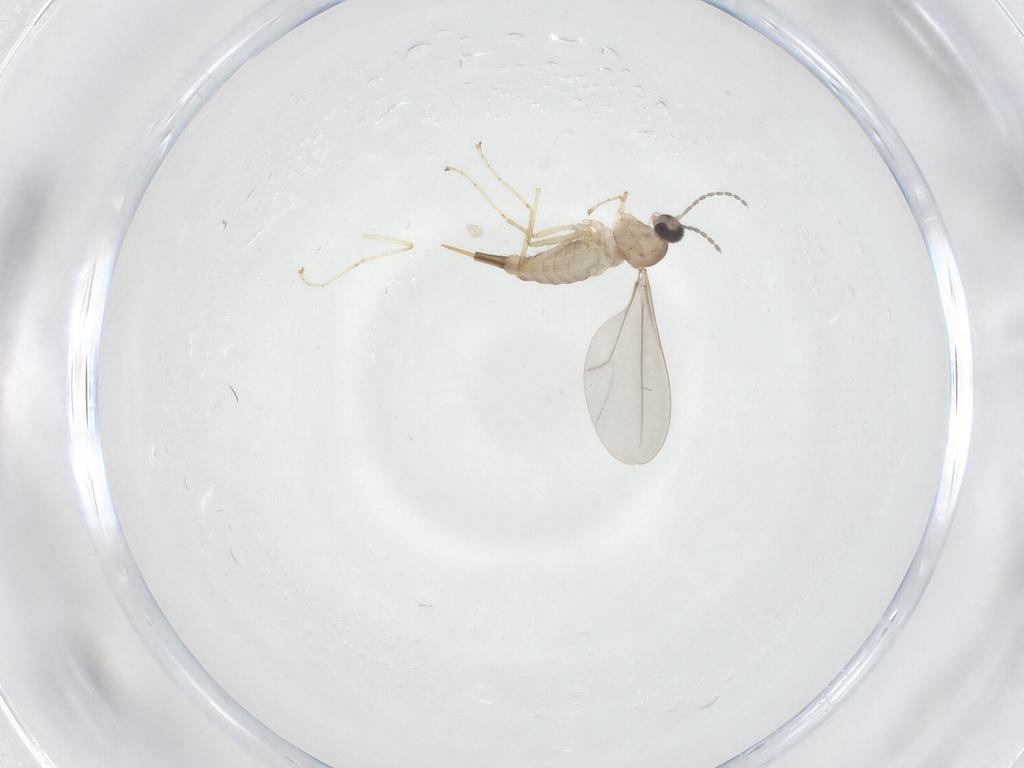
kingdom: Animalia
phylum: Arthropoda
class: Insecta
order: Diptera
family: Cecidomyiidae
